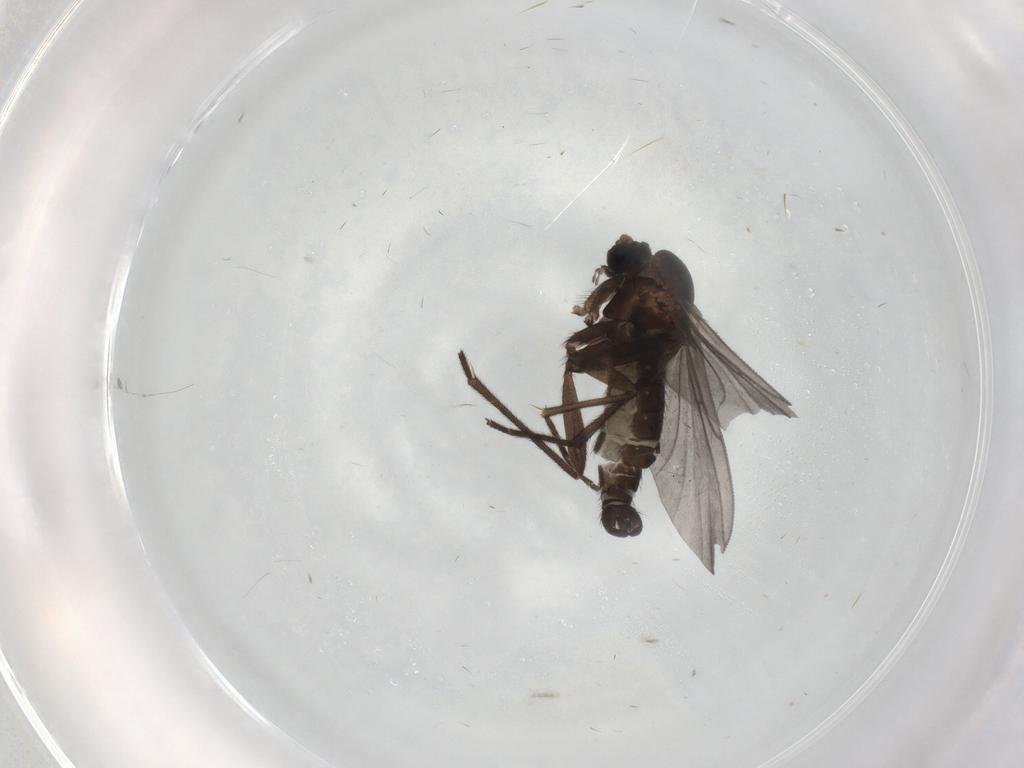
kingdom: Animalia
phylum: Arthropoda
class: Insecta
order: Diptera
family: Sciaridae
